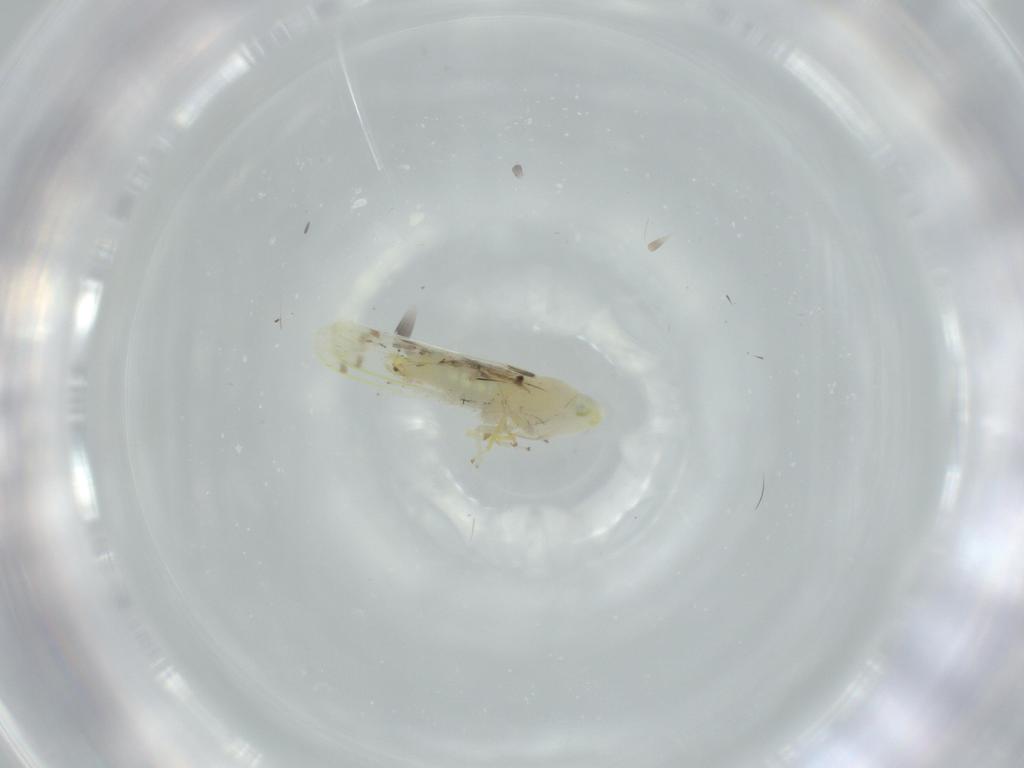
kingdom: Animalia
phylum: Arthropoda
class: Insecta
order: Hemiptera
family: Cicadellidae
